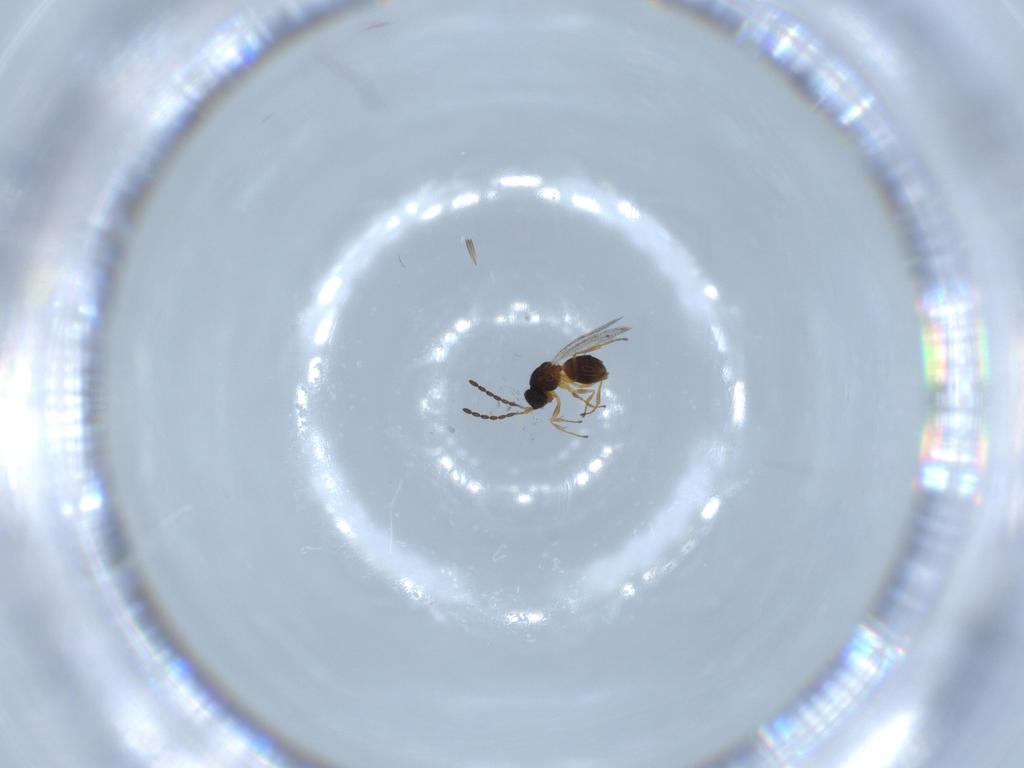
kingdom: Animalia
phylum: Arthropoda
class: Insecta
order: Hymenoptera
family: Figitidae
